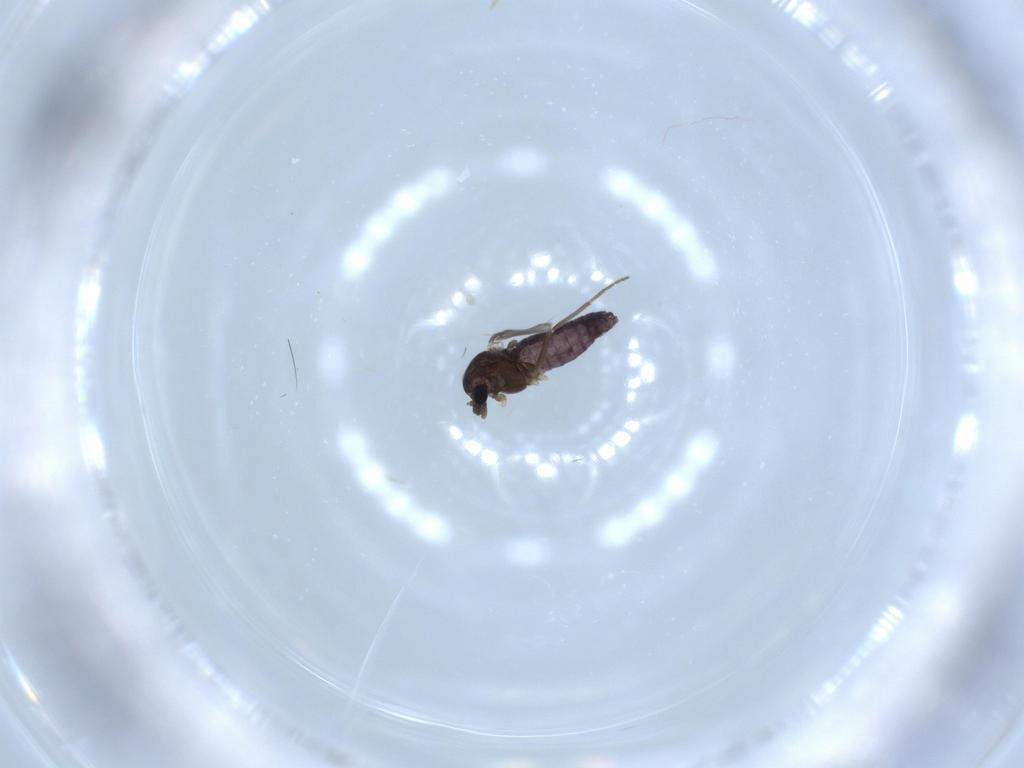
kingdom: Animalia
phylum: Arthropoda
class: Insecta
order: Diptera
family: Chironomidae
